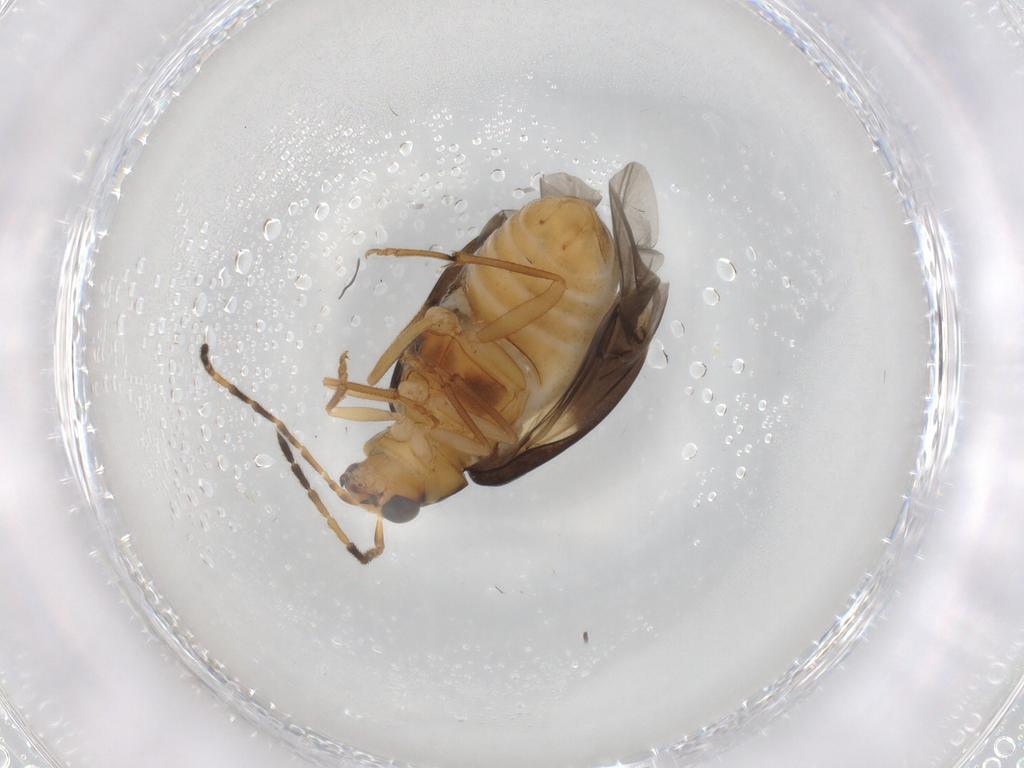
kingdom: Animalia
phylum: Arthropoda
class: Insecta
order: Coleoptera
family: Chrysomelidae
